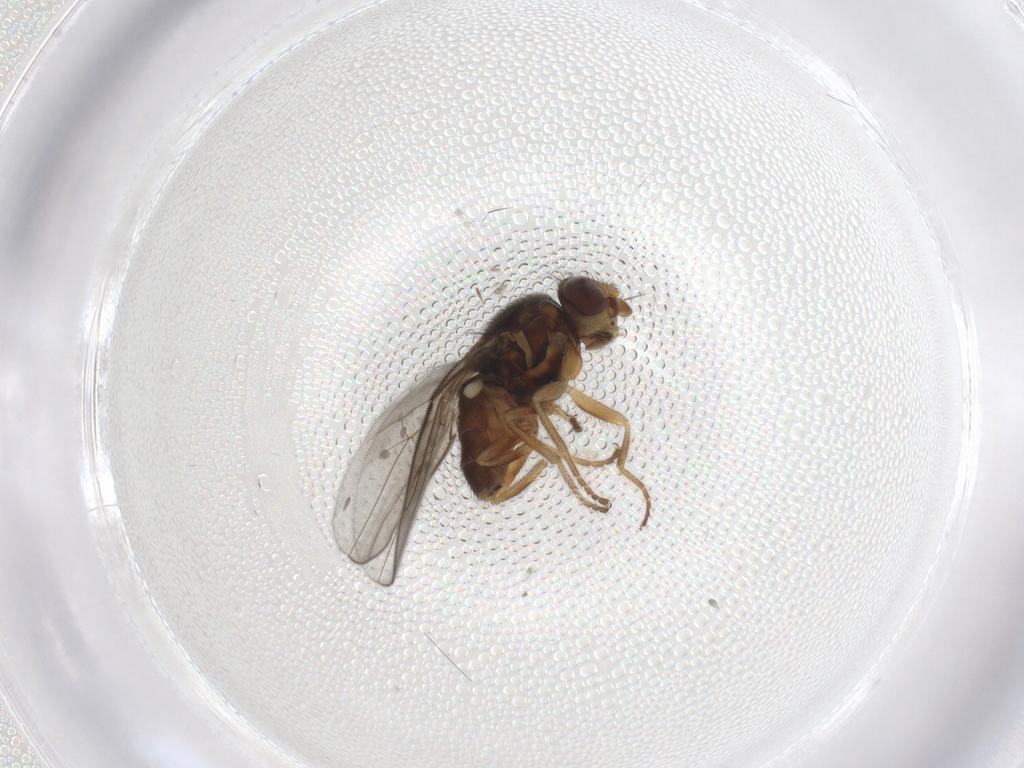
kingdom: Animalia
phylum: Arthropoda
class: Insecta
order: Diptera
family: Chloropidae
